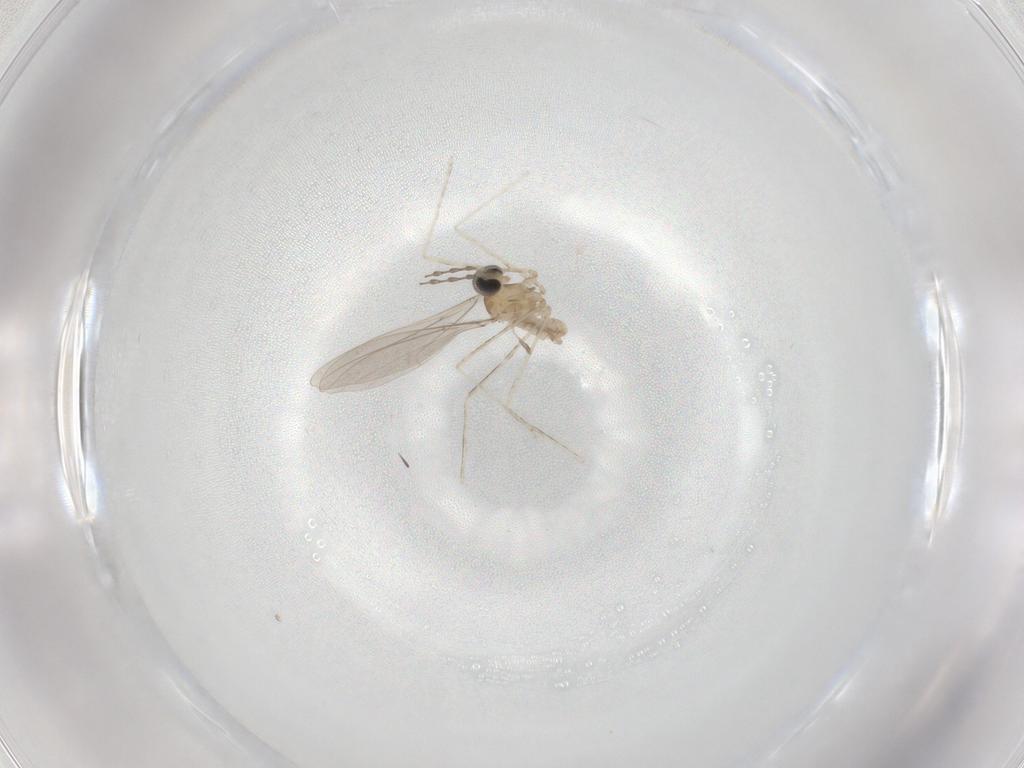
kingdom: Animalia
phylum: Arthropoda
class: Insecta
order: Diptera
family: Cecidomyiidae
